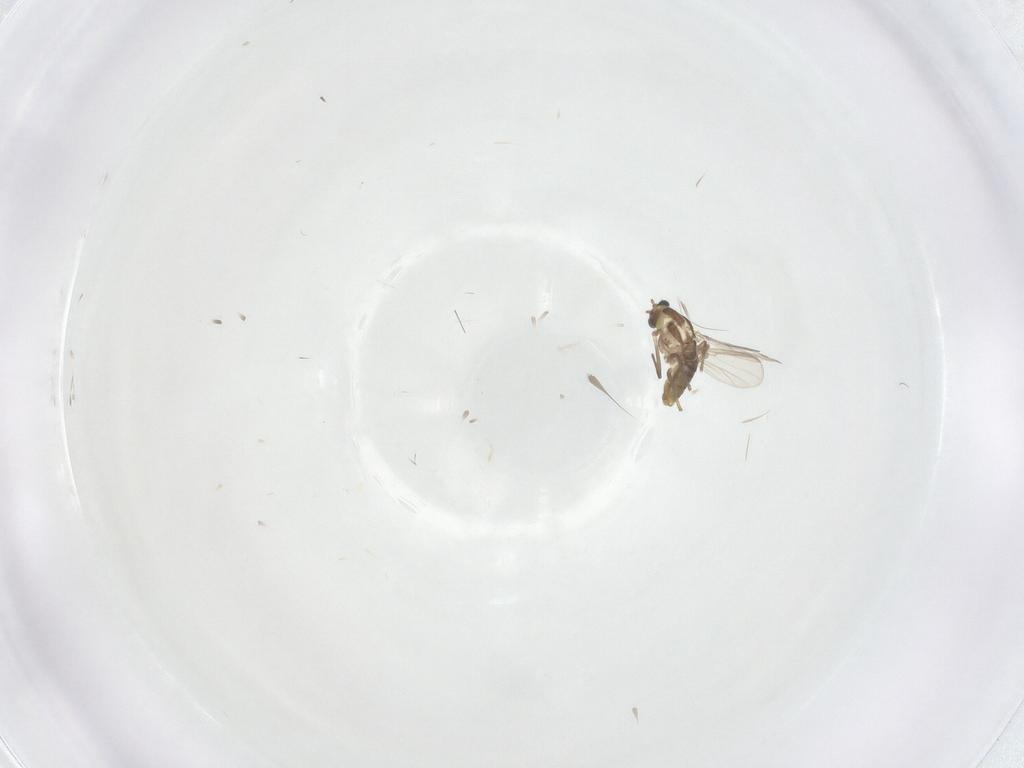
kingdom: Animalia
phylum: Arthropoda
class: Insecta
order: Diptera
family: Chironomidae
